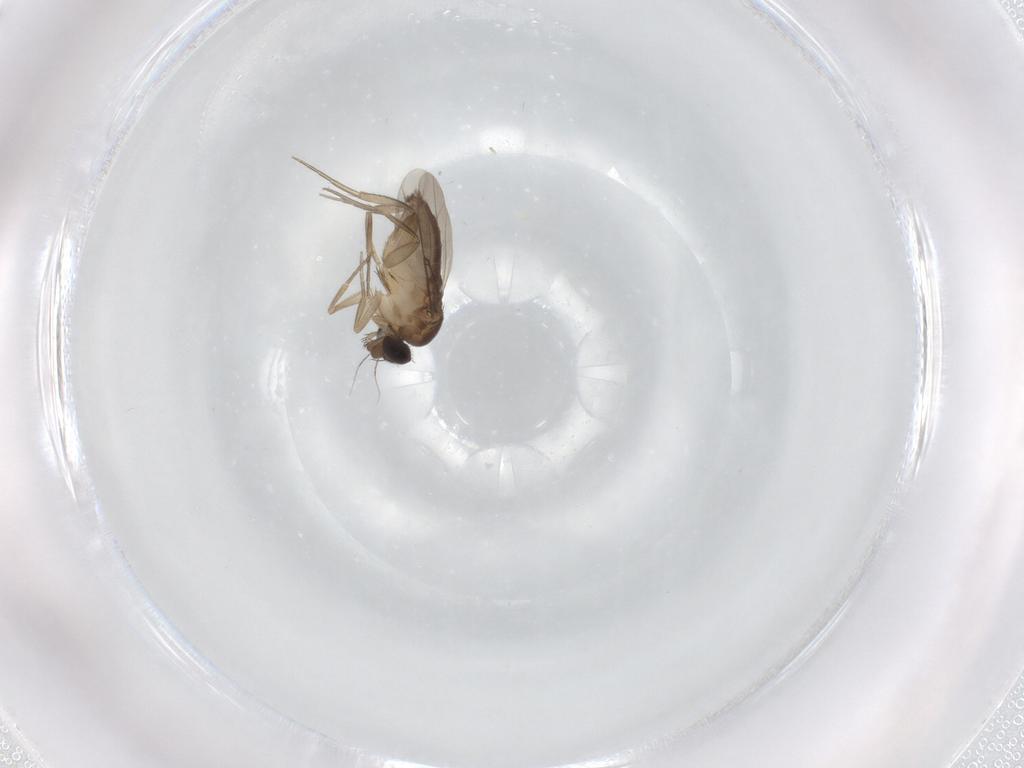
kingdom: Animalia
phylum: Arthropoda
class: Insecta
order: Diptera
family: Phoridae
